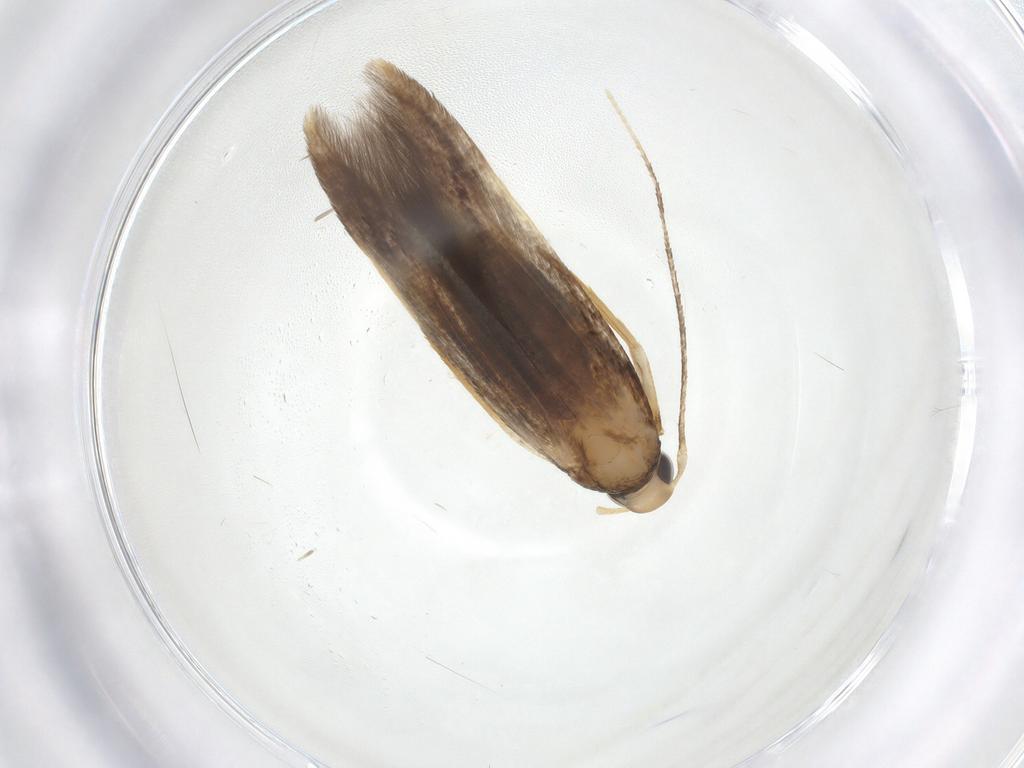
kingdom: Animalia
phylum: Arthropoda
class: Insecta
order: Lepidoptera
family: Cosmopterigidae
